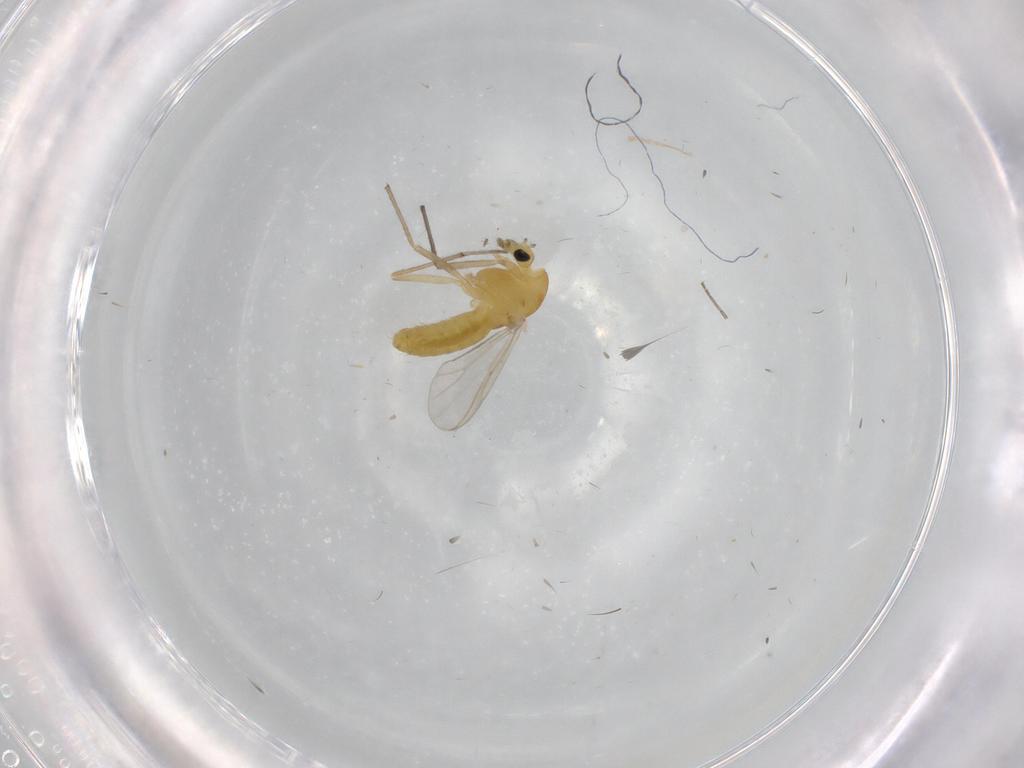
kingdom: Animalia
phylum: Arthropoda
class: Insecta
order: Diptera
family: Chironomidae
